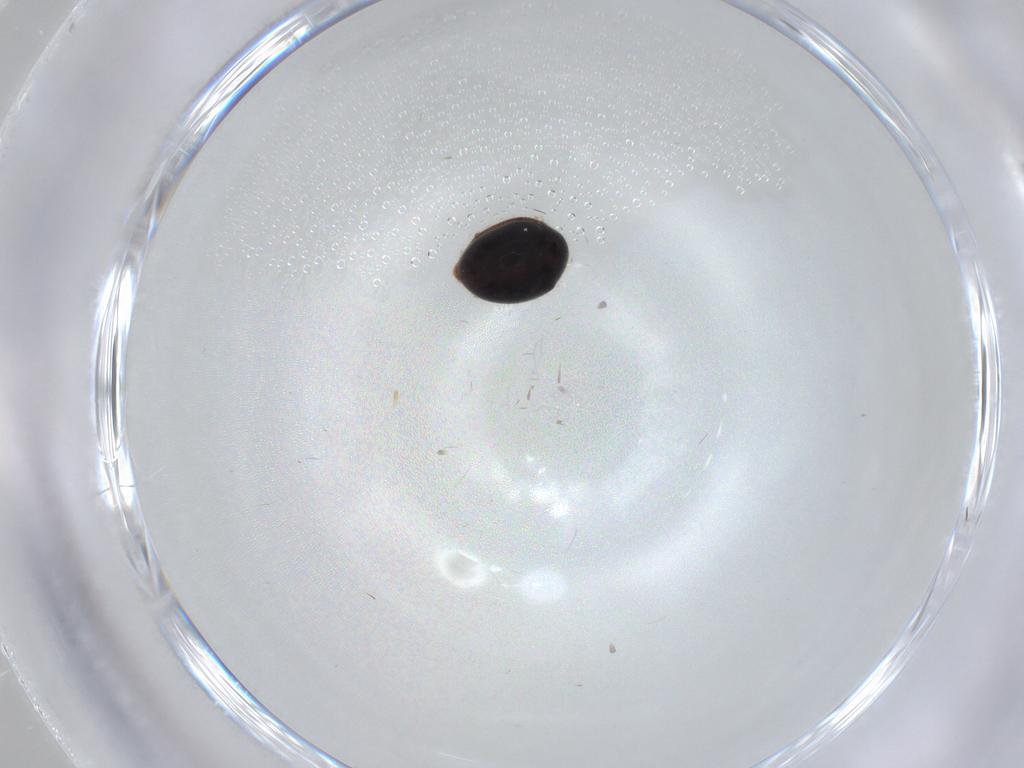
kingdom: Animalia
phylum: Arthropoda
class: Insecta
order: Coleoptera
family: Coccinellidae
